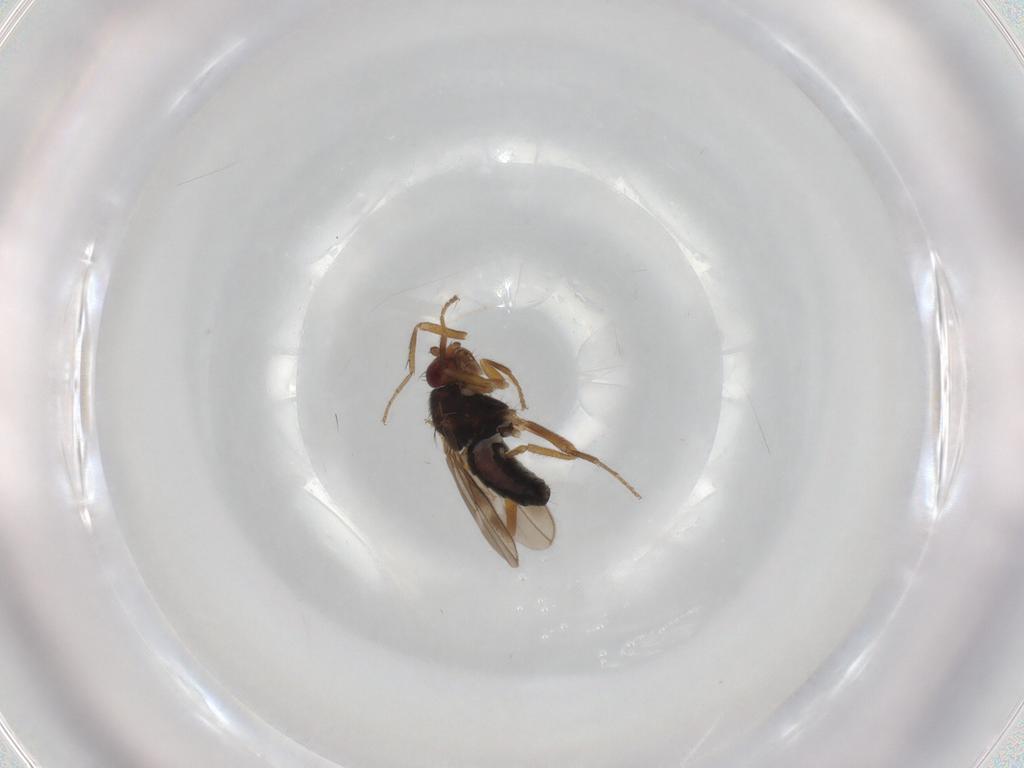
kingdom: Animalia
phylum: Arthropoda
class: Insecta
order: Diptera
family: Sphaeroceridae
